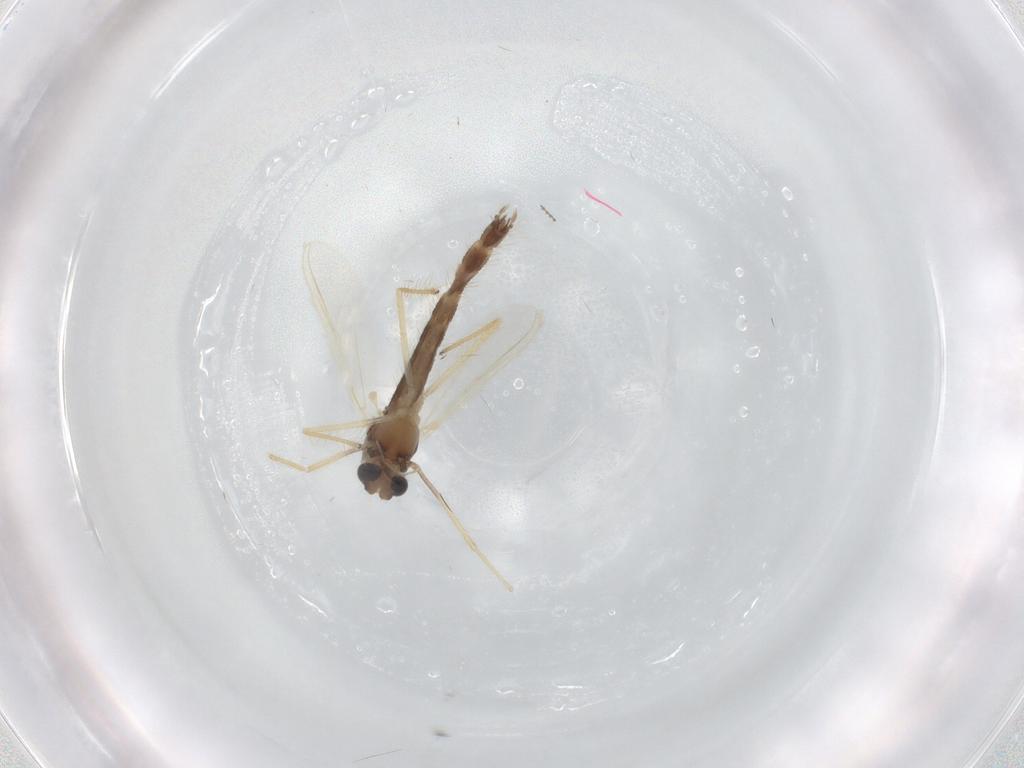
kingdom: Animalia
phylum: Arthropoda
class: Insecta
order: Diptera
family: Chironomidae
